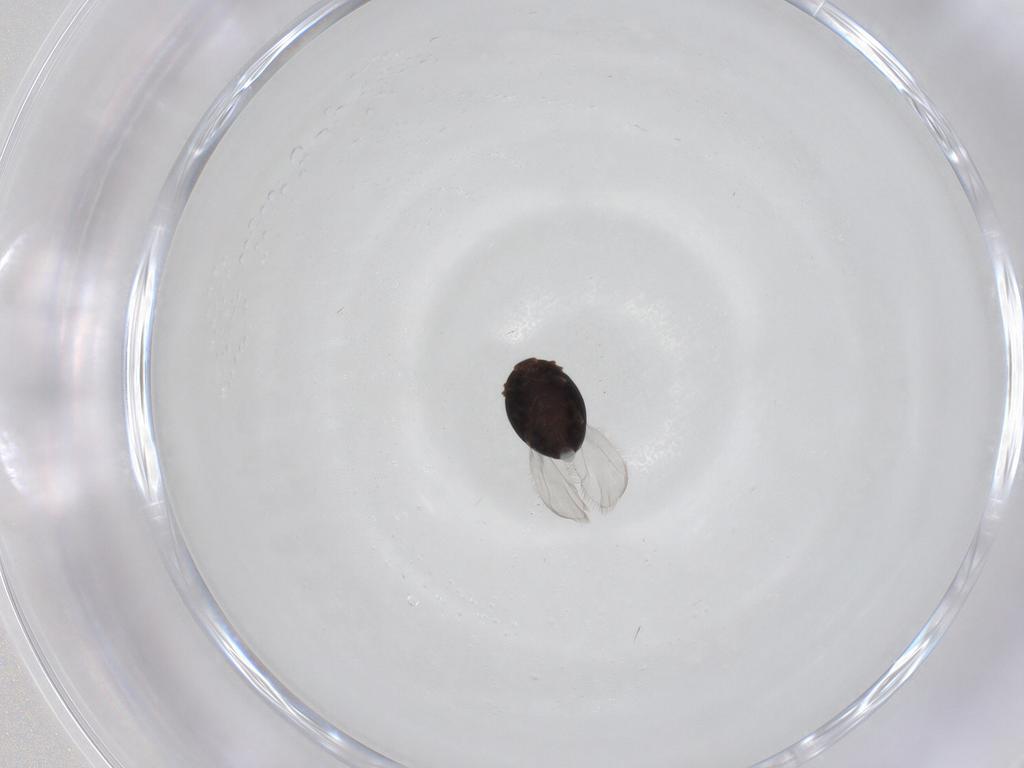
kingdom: Animalia
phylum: Arthropoda
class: Insecta
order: Coleoptera
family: Corylophidae
